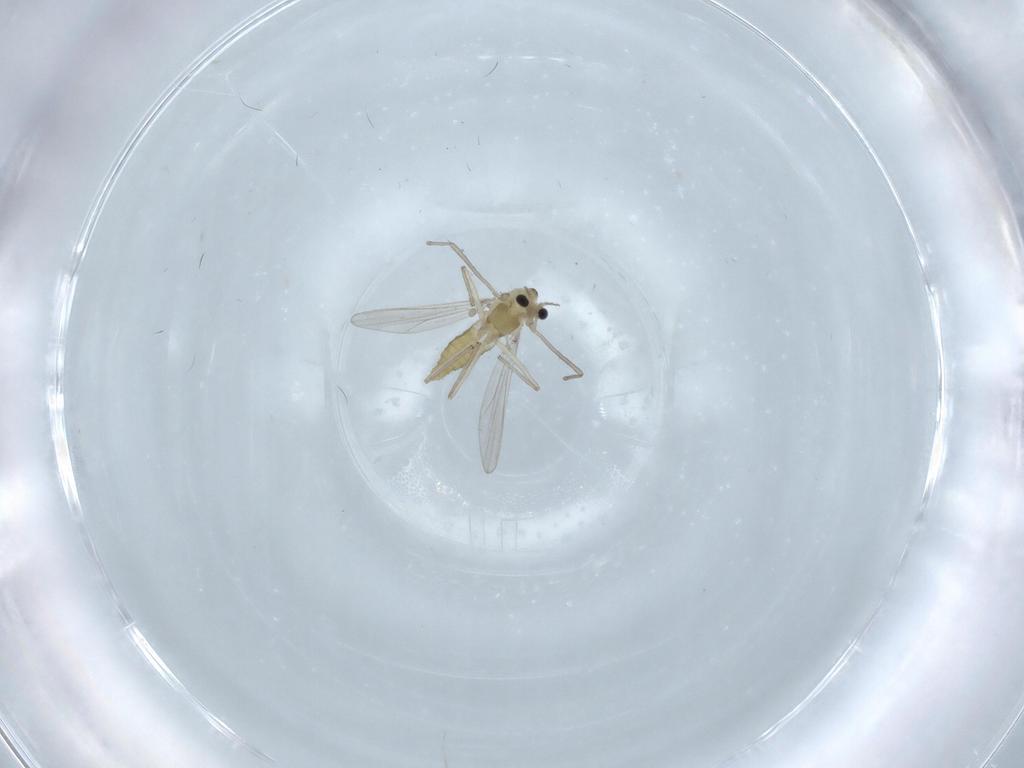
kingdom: Animalia
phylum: Arthropoda
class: Insecta
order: Diptera
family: Chironomidae
